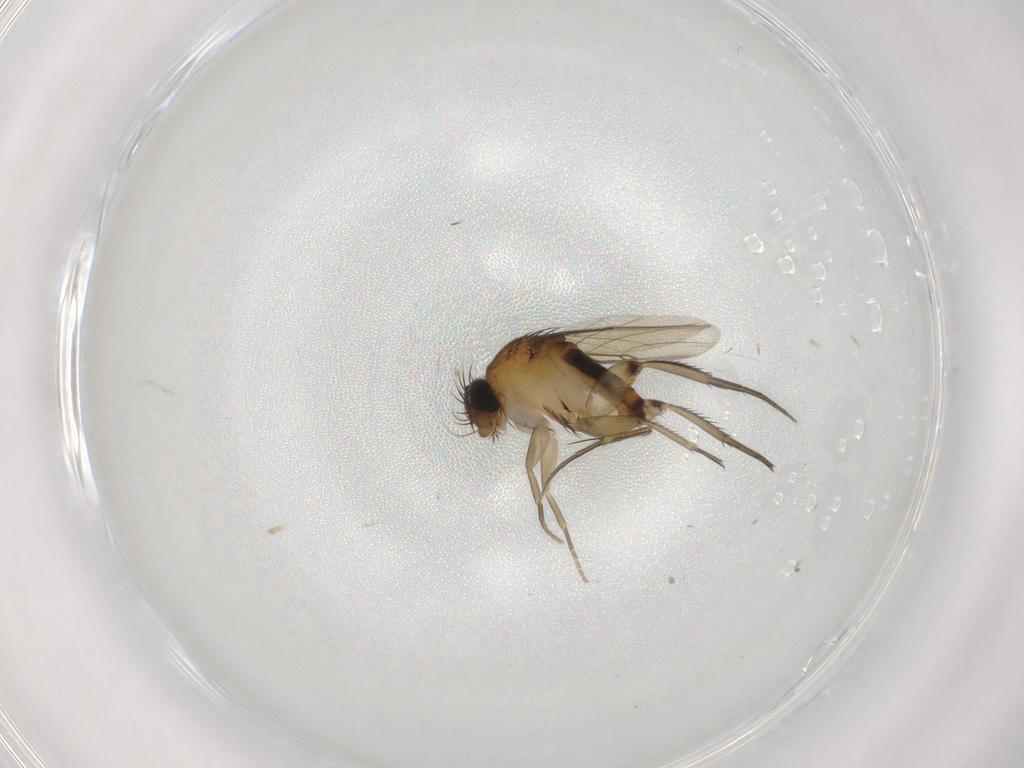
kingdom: Animalia
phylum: Arthropoda
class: Insecta
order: Diptera
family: Phoridae
